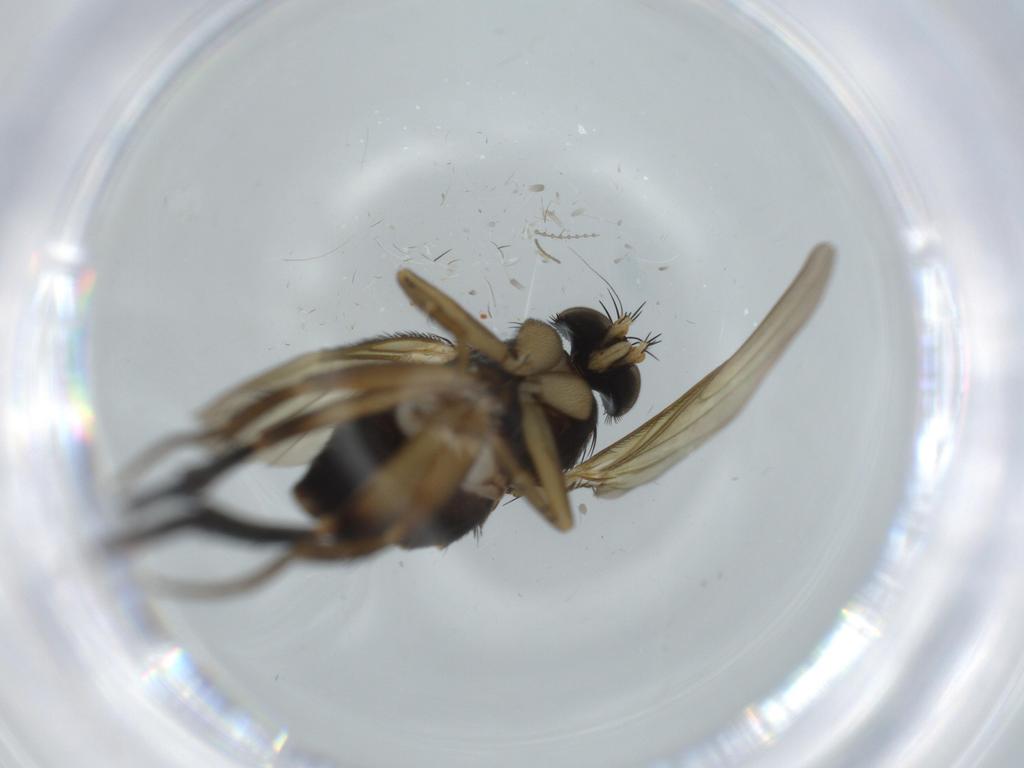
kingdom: Animalia
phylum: Arthropoda
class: Insecta
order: Diptera
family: Phoridae
